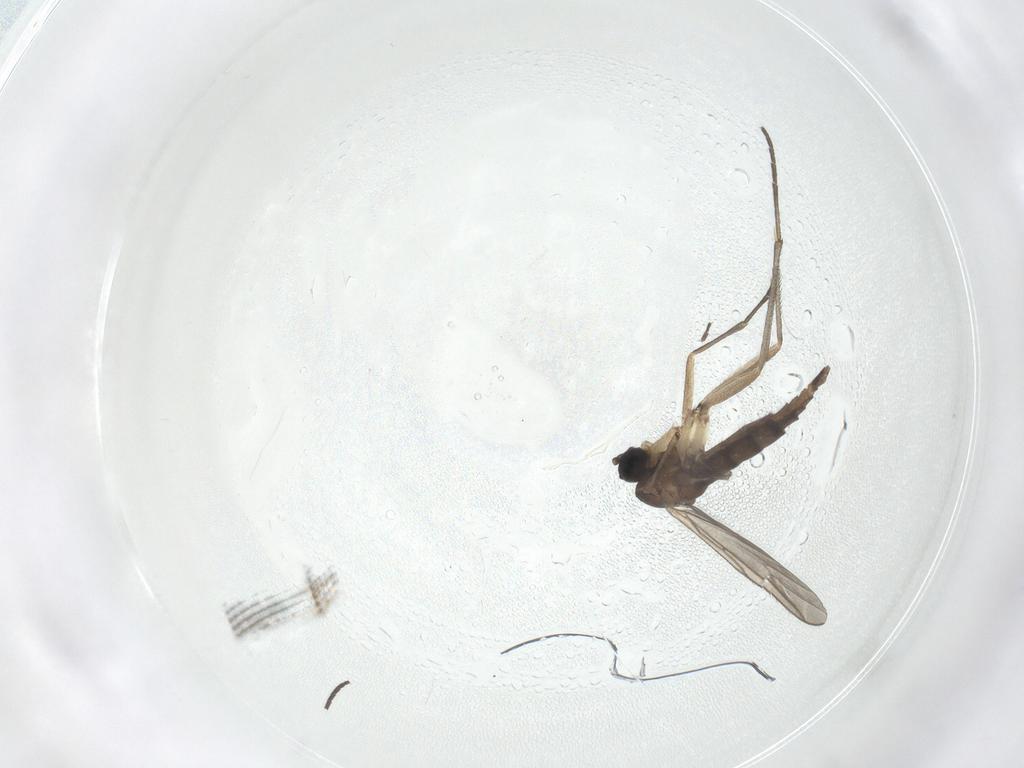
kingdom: Animalia
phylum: Arthropoda
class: Insecta
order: Diptera
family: Sciaridae
